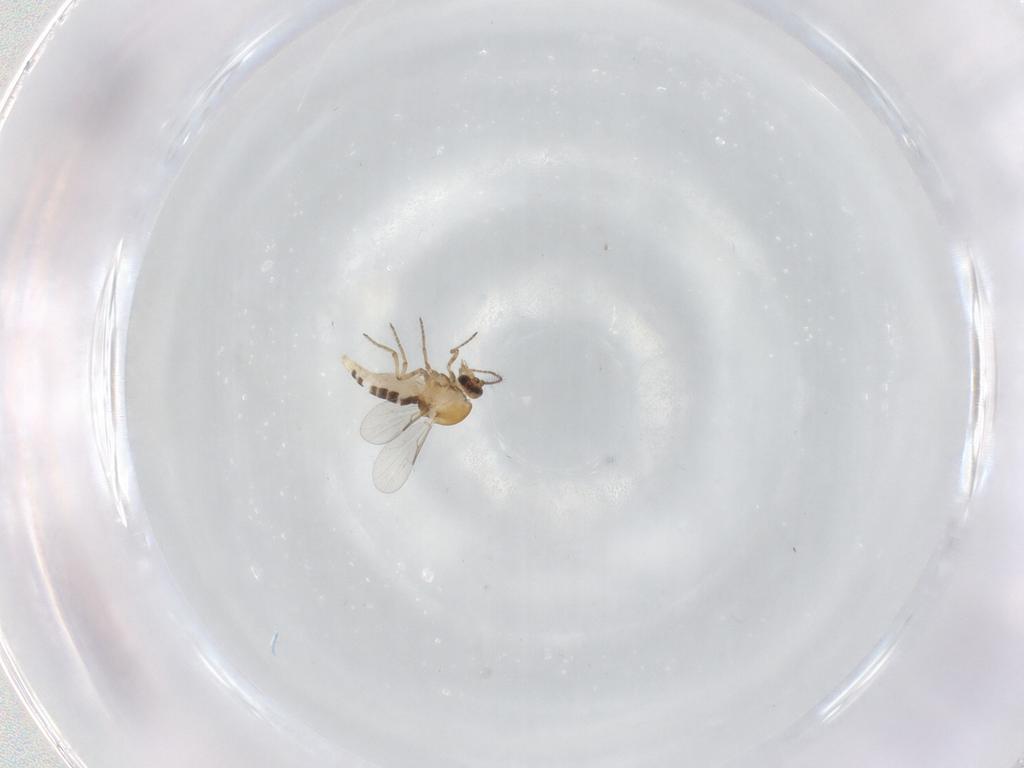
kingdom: Animalia
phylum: Arthropoda
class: Insecta
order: Diptera
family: Ceratopogonidae
